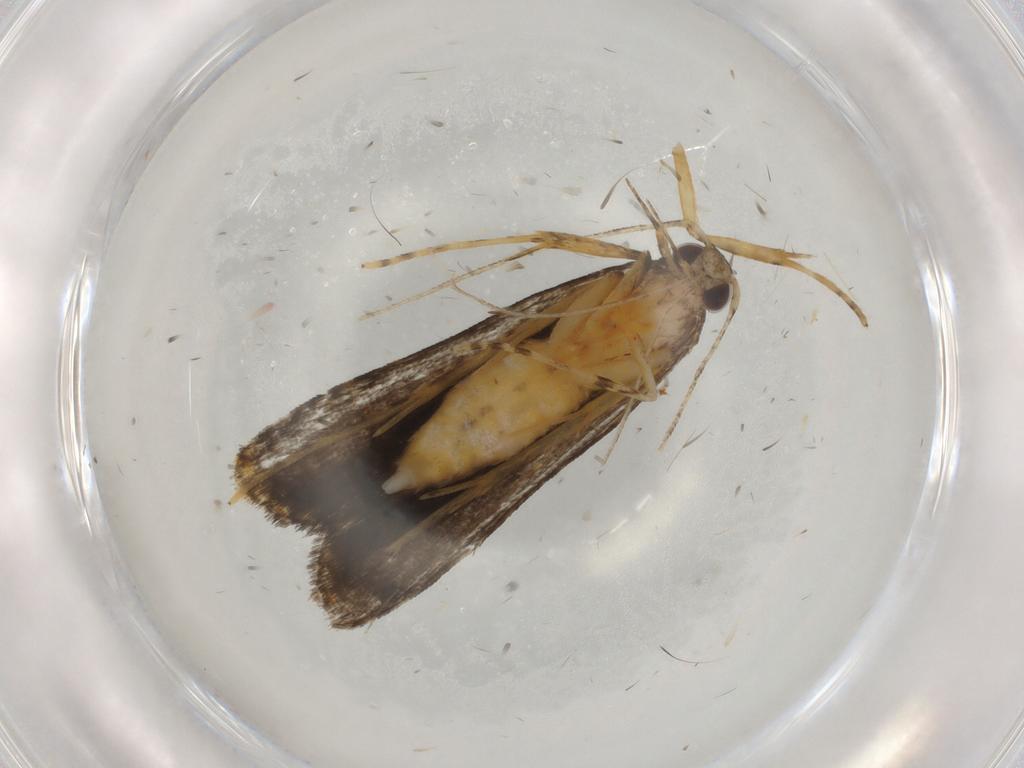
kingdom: Animalia
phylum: Arthropoda
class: Insecta
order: Lepidoptera
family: Cosmopterigidae
